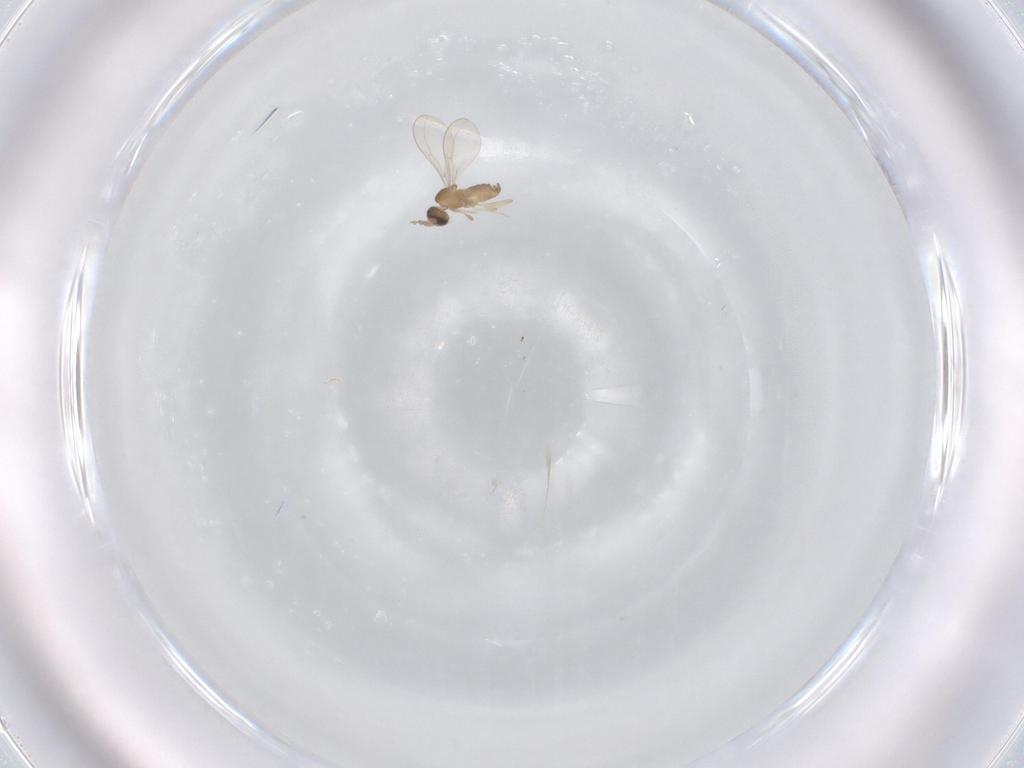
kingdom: Animalia
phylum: Arthropoda
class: Insecta
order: Diptera
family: Cecidomyiidae
